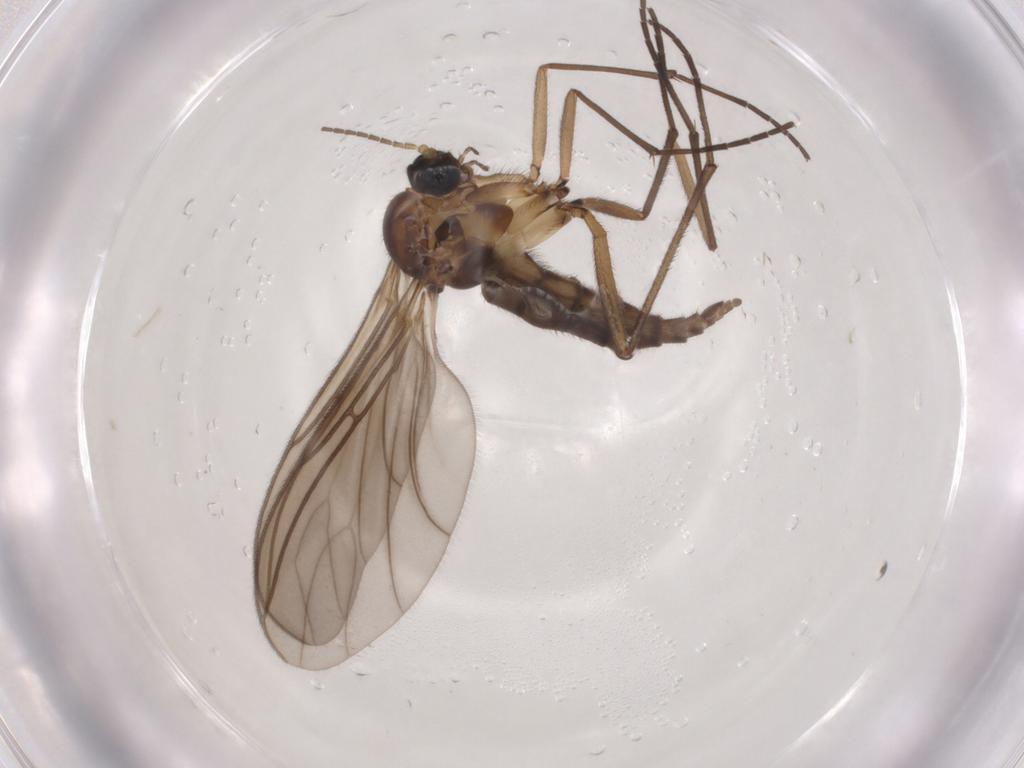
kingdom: Animalia
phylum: Arthropoda
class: Insecta
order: Diptera
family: Sciaridae
